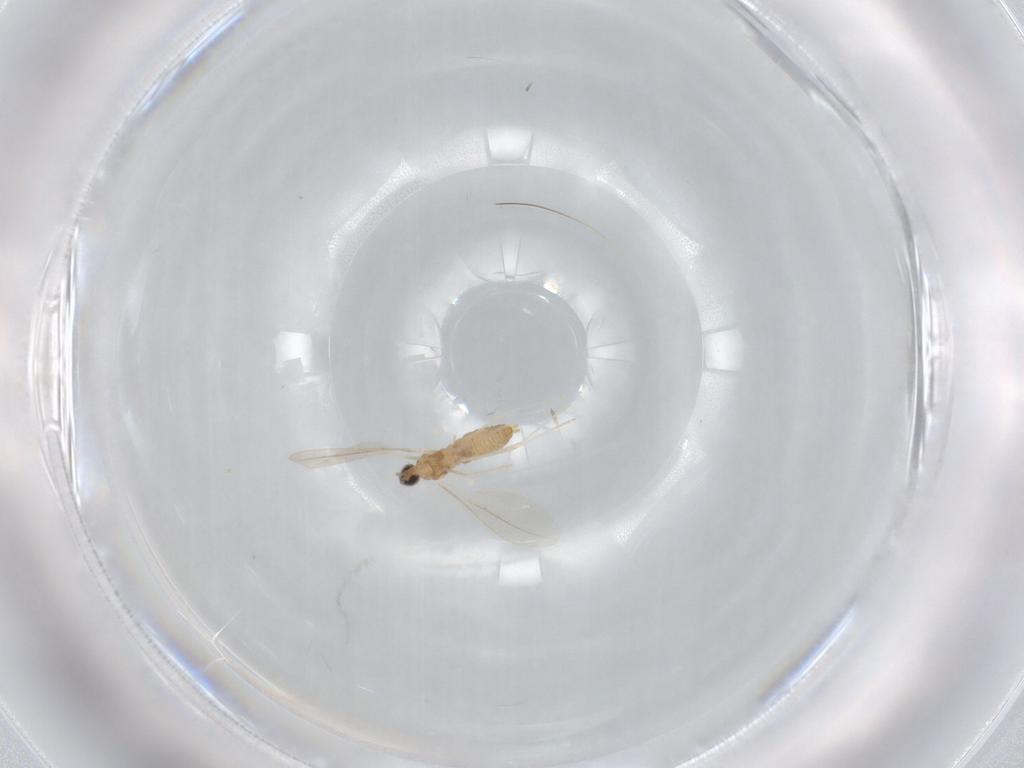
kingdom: Animalia
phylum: Arthropoda
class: Insecta
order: Diptera
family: Cecidomyiidae
